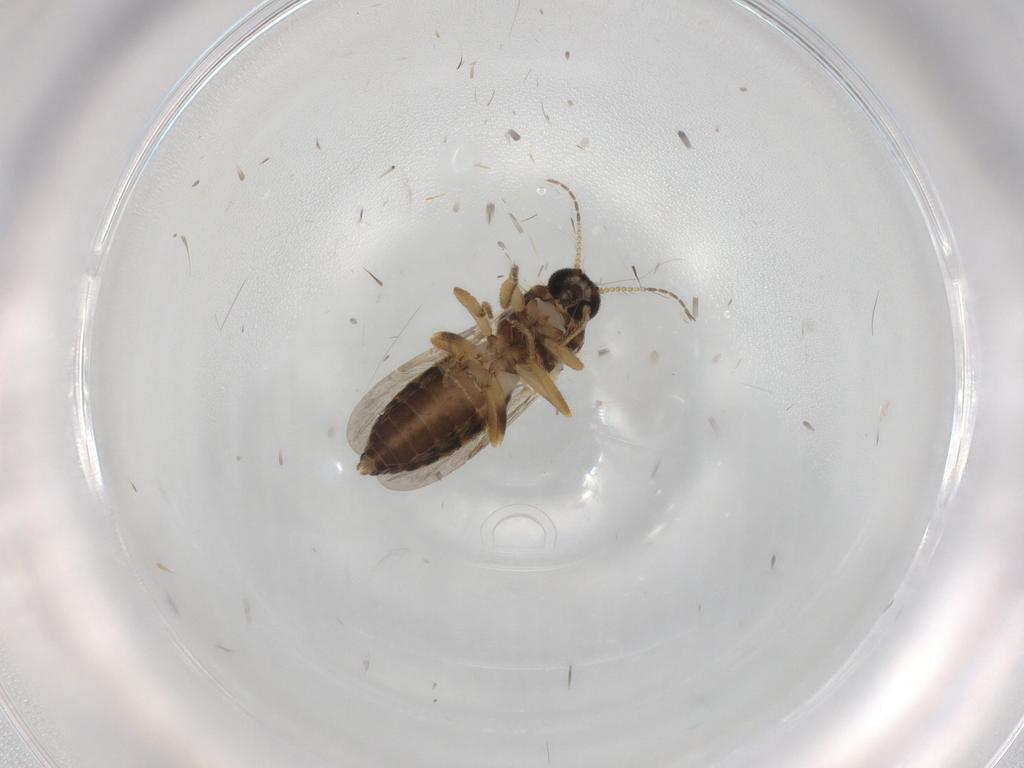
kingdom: Animalia
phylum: Arthropoda
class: Insecta
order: Diptera
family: Ceratopogonidae
